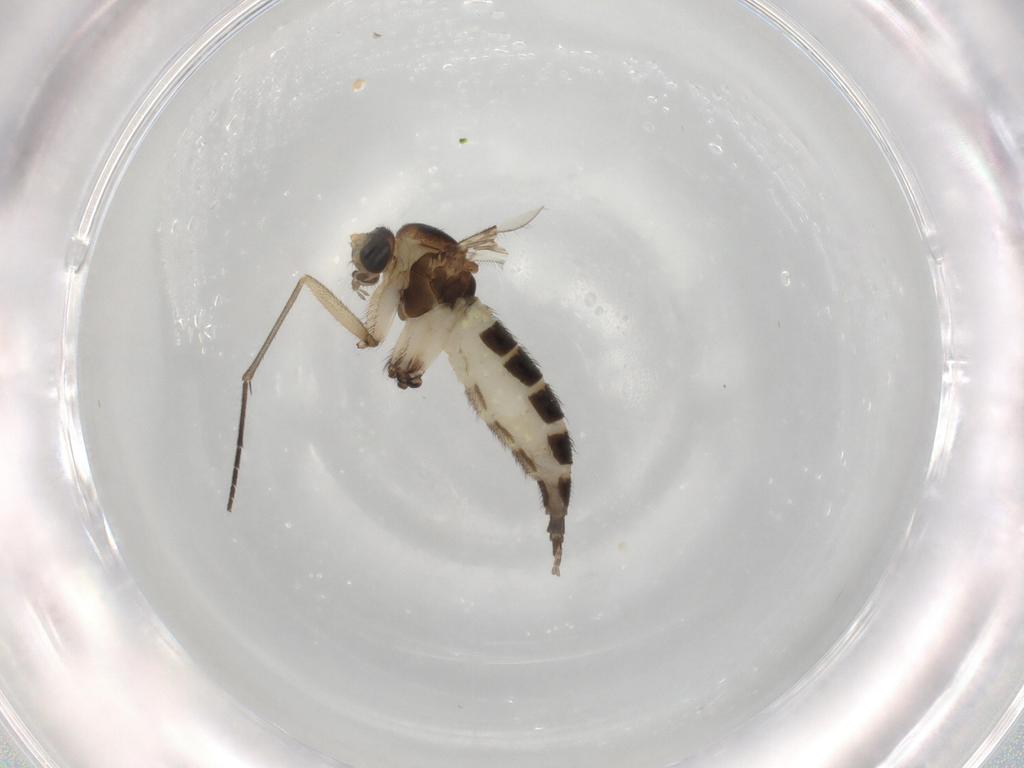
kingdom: Animalia
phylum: Arthropoda
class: Insecta
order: Diptera
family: Sciaridae
